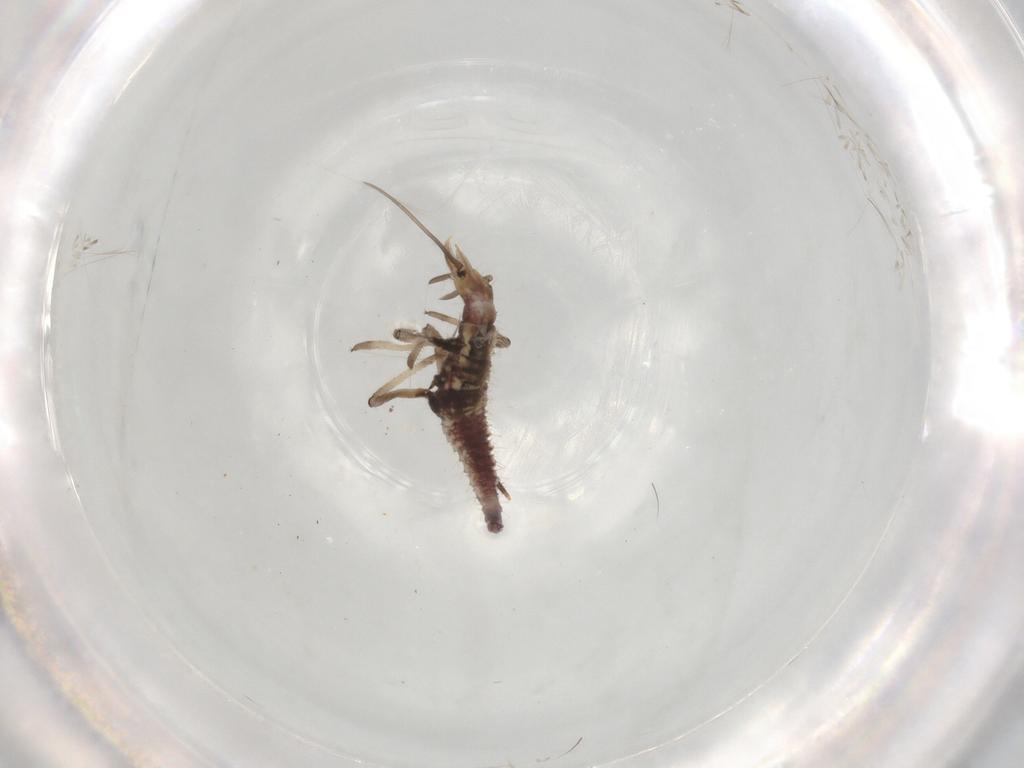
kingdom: Animalia
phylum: Arthropoda
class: Insecta
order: Neuroptera
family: Hemerobiidae
